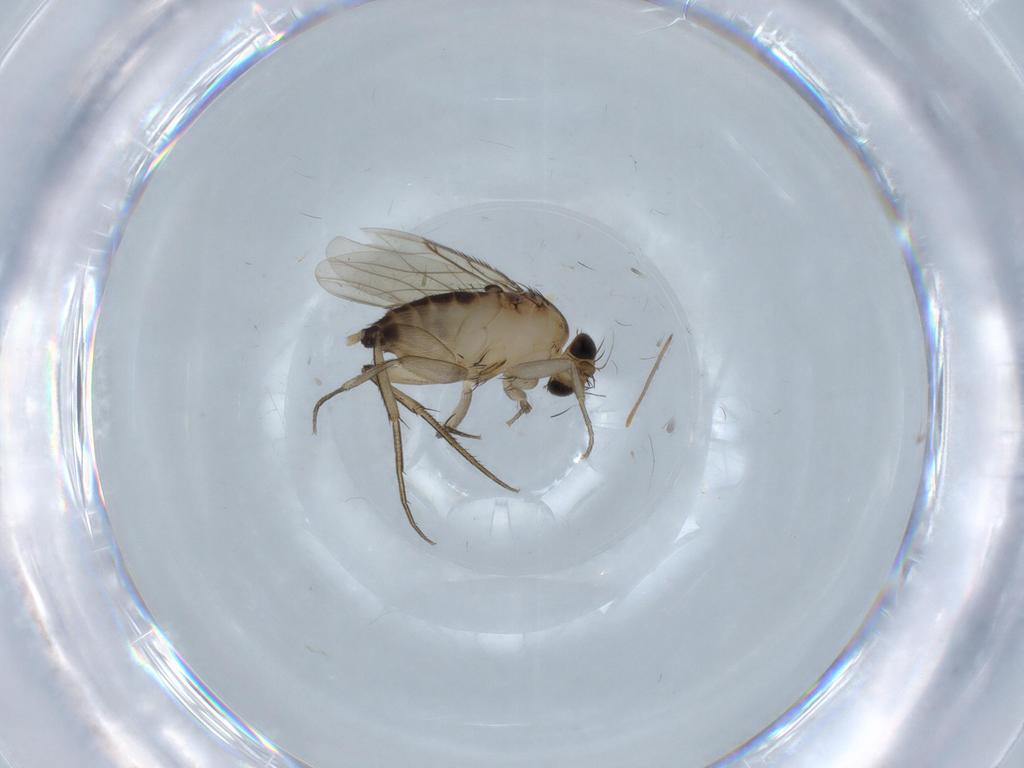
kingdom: Animalia
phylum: Arthropoda
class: Insecta
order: Diptera
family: Phoridae
